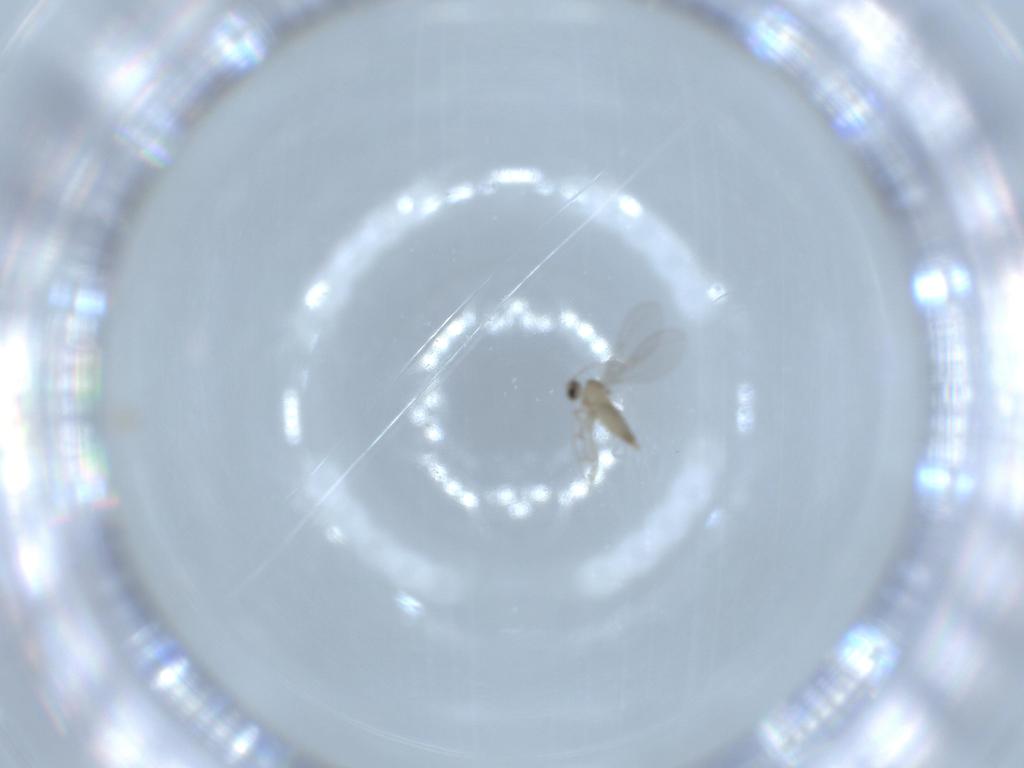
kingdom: Animalia
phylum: Arthropoda
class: Insecta
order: Diptera
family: Cecidomyiidae
